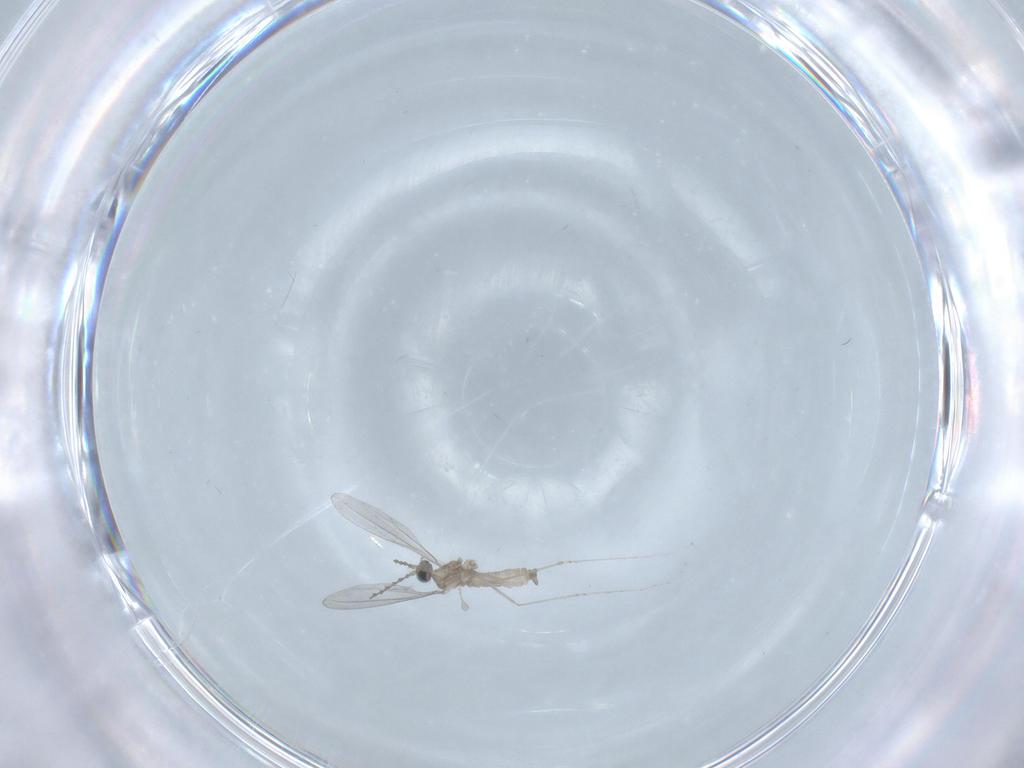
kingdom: Animalia
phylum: Arthropoda
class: Insecta
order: Diptera
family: Cecidomyiidae
